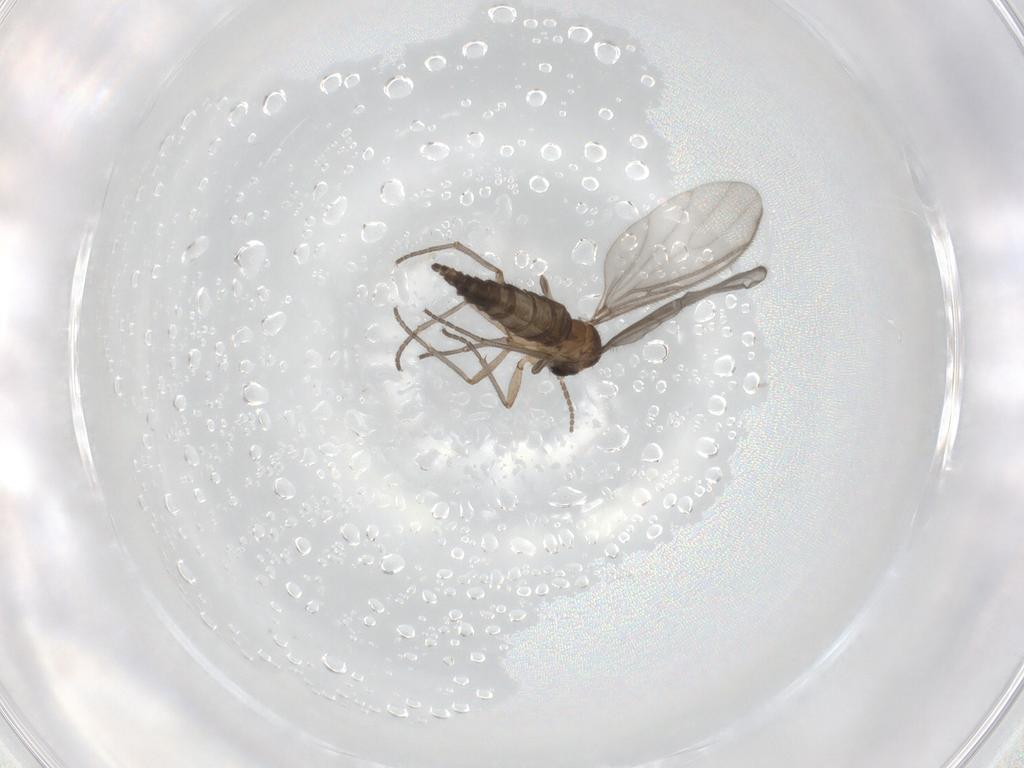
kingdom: Animalia
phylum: Arthropoda
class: Insecta
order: Diptera
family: Sciaridae
